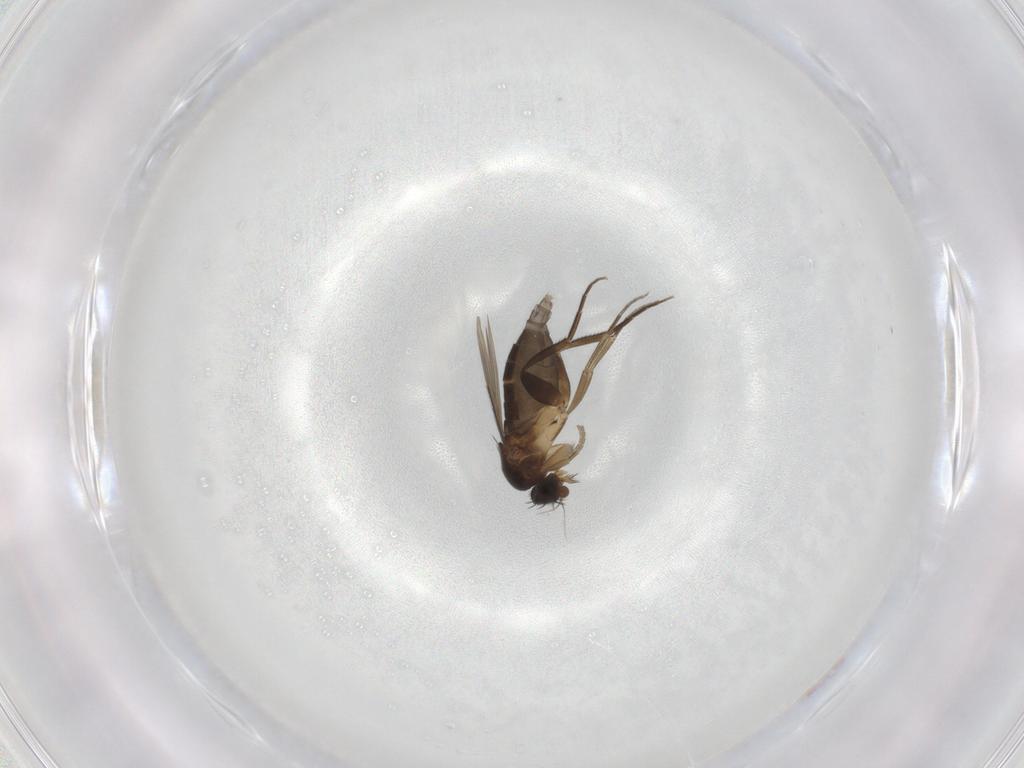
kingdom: Animalia
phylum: Arthropoda
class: Insecta
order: Diptera
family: Phoridae
